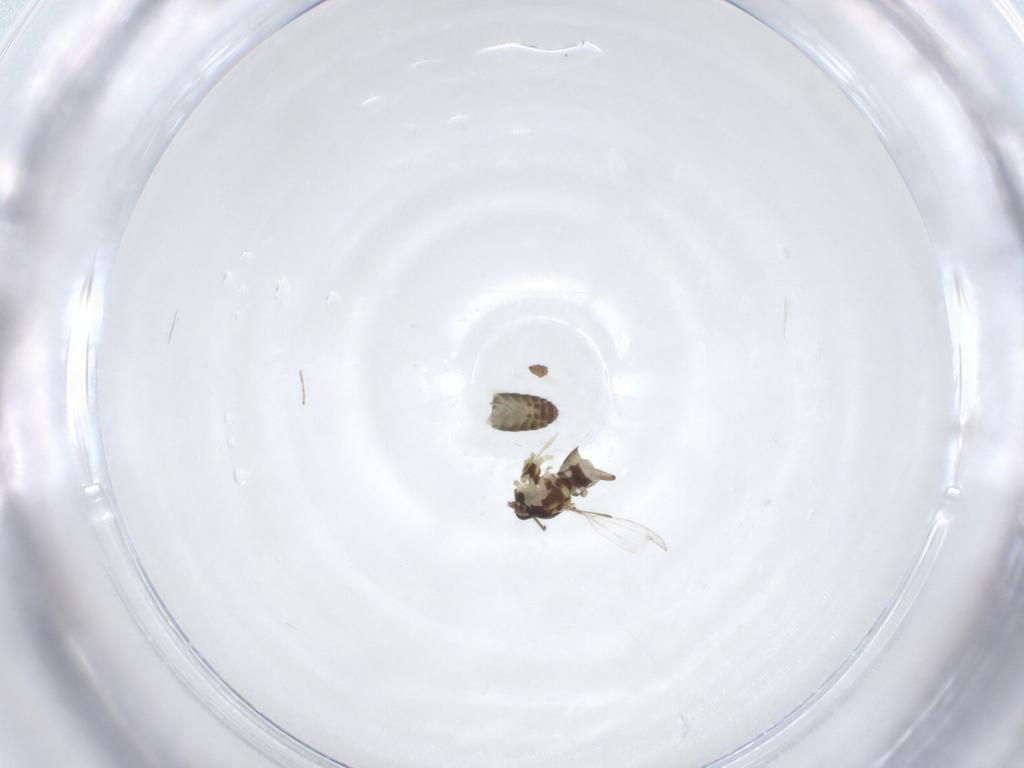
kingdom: Animalia
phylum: Arthropoda
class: Insecta
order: Diptera
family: Ceratopogonidae
